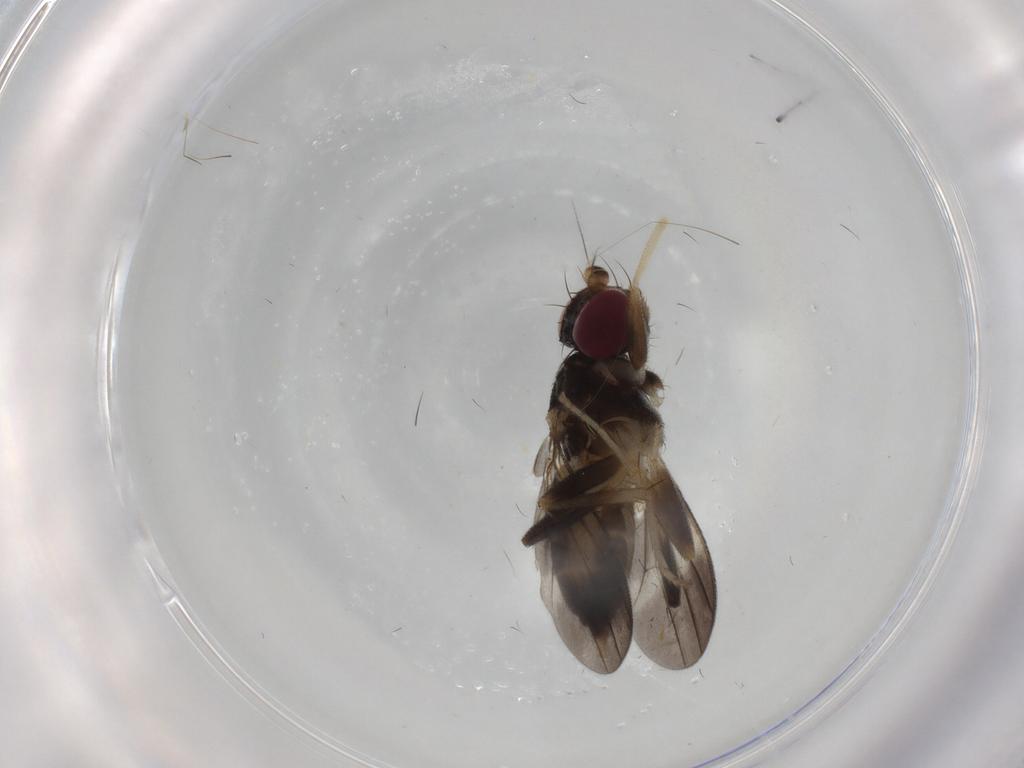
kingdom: Animalia
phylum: Arthropoda
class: Insecta
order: Diptera
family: Clusiidae
